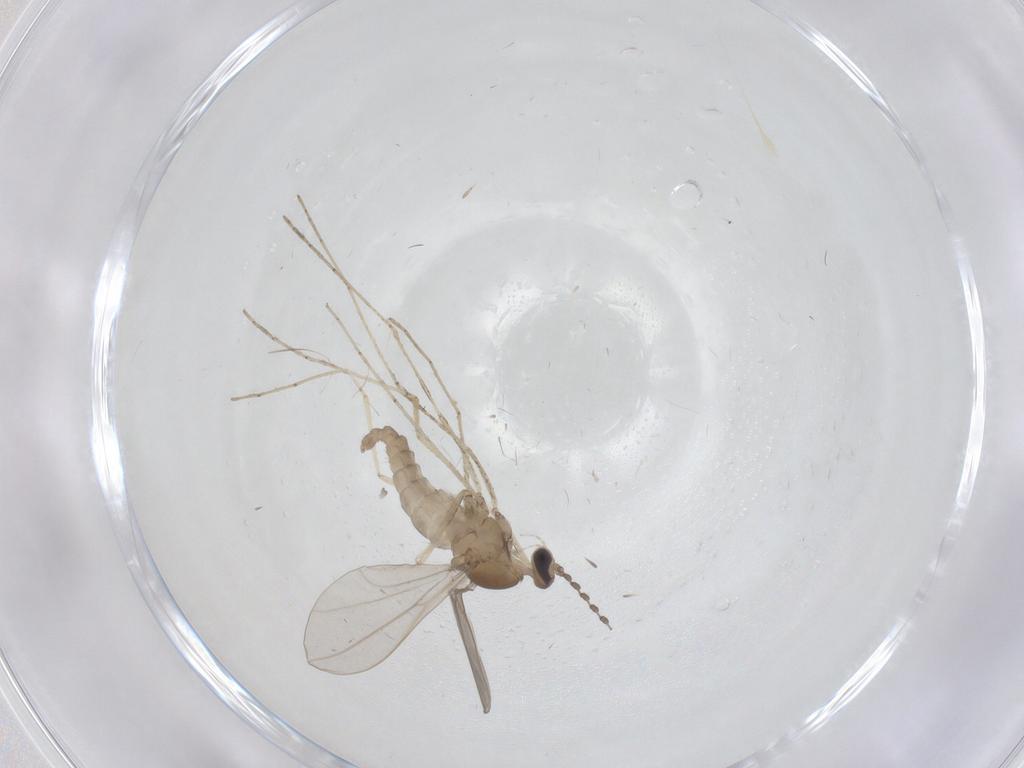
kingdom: Animalia
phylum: Arthropoda
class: Insecta
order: Diptera
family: Cecidomyiidae
